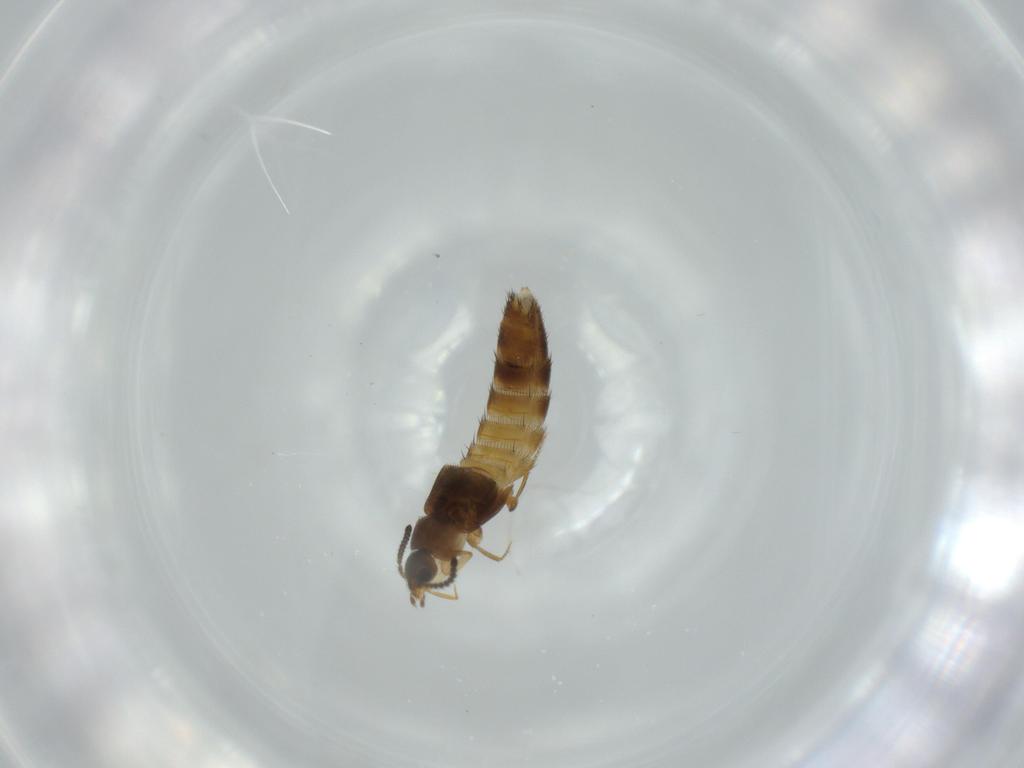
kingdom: Animalia
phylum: Arthropoda
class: Insecta
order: Coleoptera
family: Staphylinidae
